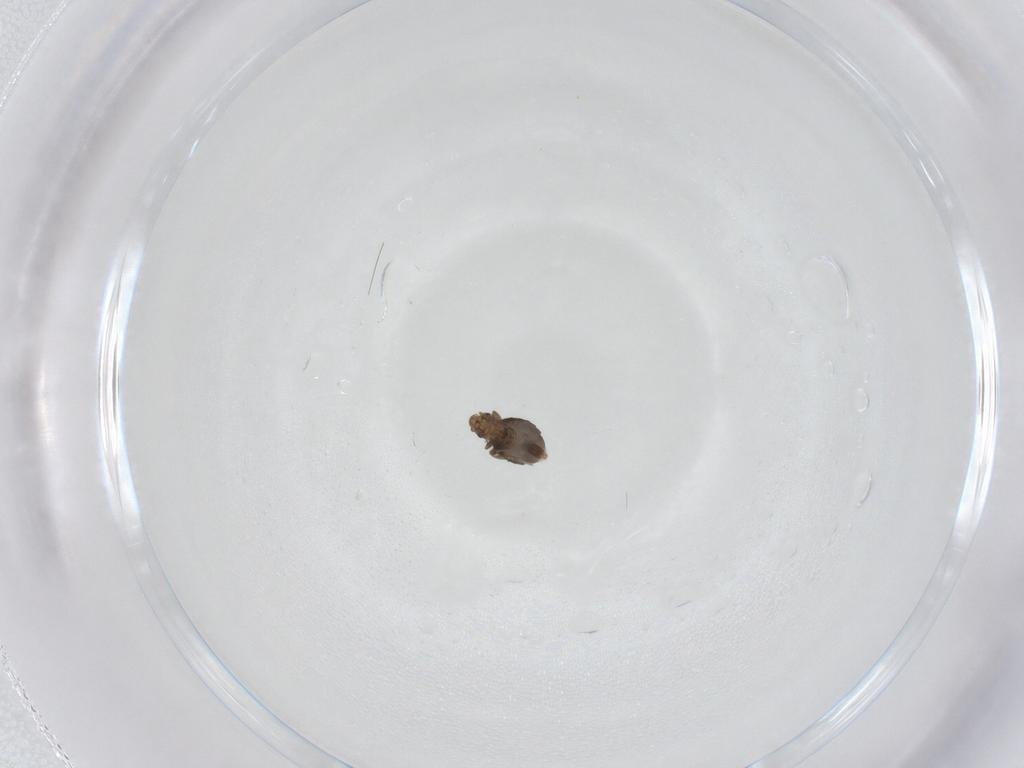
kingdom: Animalia
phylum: Arthropoda
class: Insecta
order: Diptera
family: Phoridae
